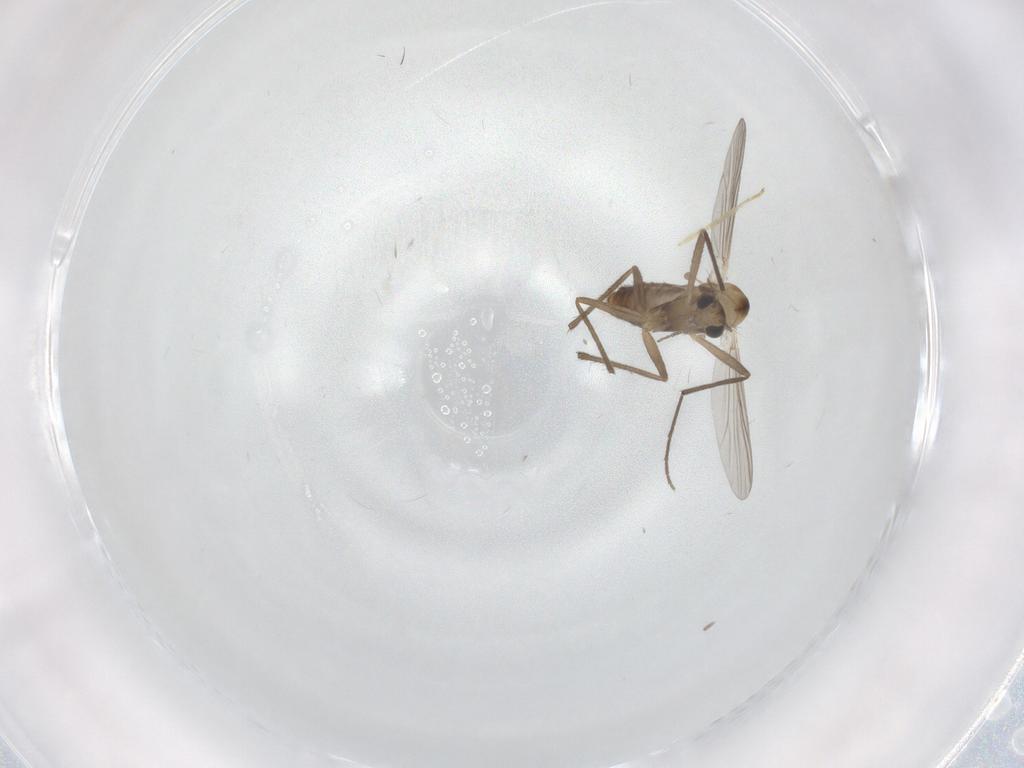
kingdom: Animalia
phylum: Arthropoda
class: Insecta
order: Diptera
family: Chironomidae
